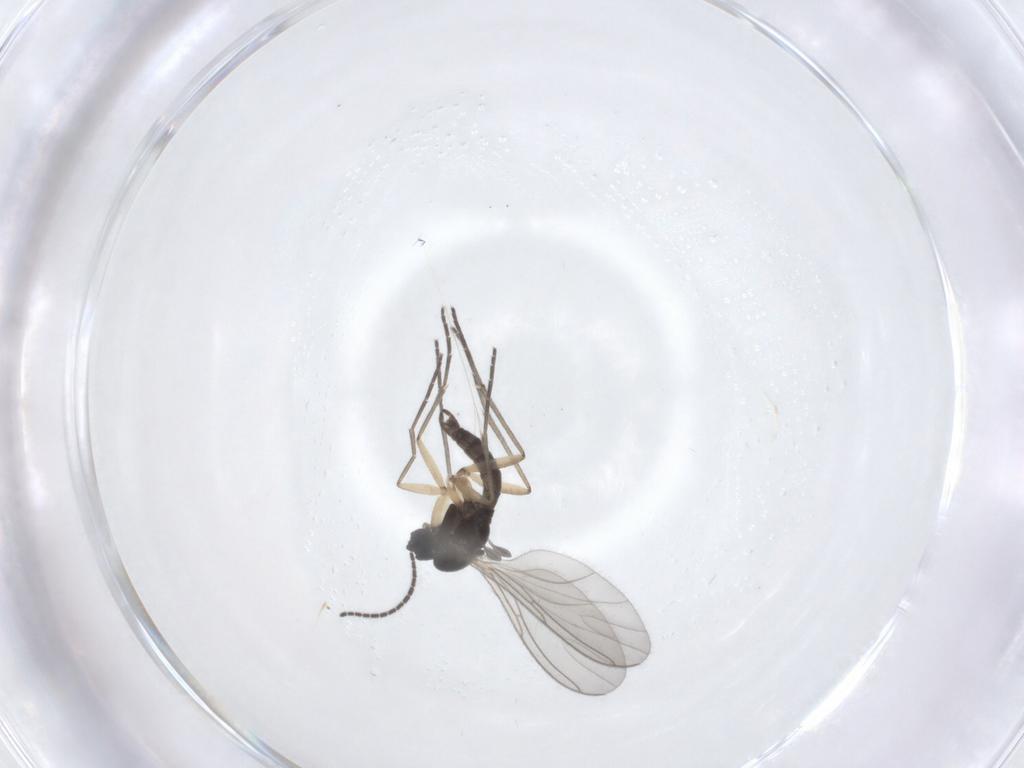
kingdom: Animalia
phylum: Arthropoda
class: Insecta
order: Diptera
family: Sciaridae
